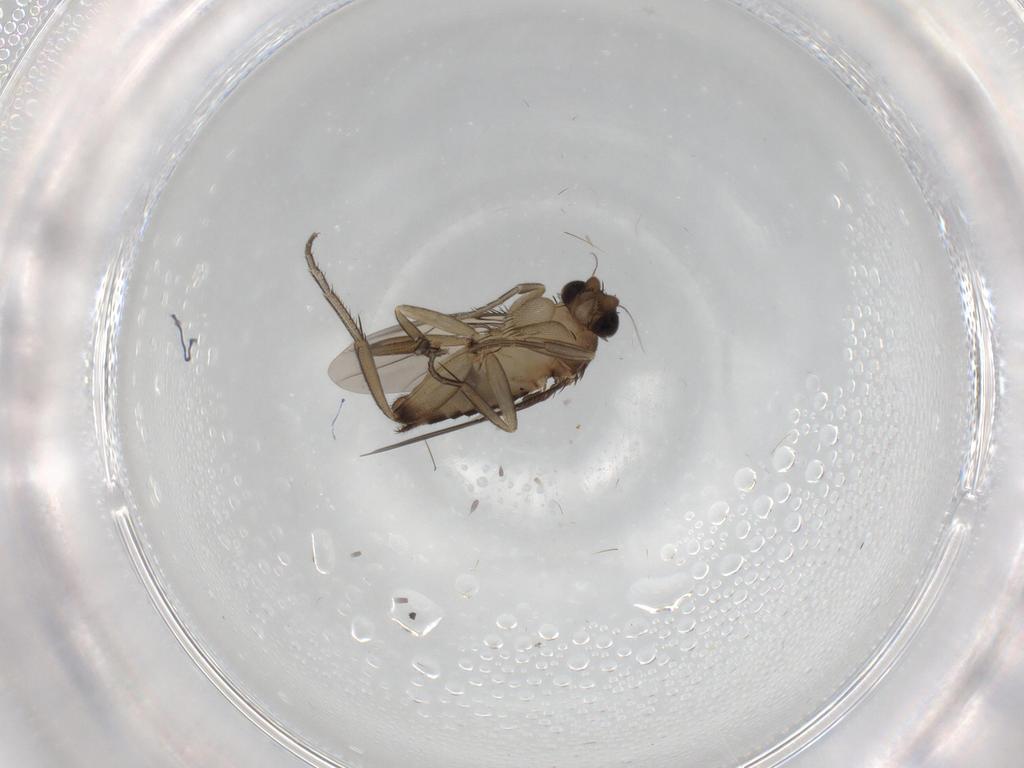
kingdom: Animalia
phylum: Arthropoda
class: Insecta
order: Diptera
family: Phoridae
